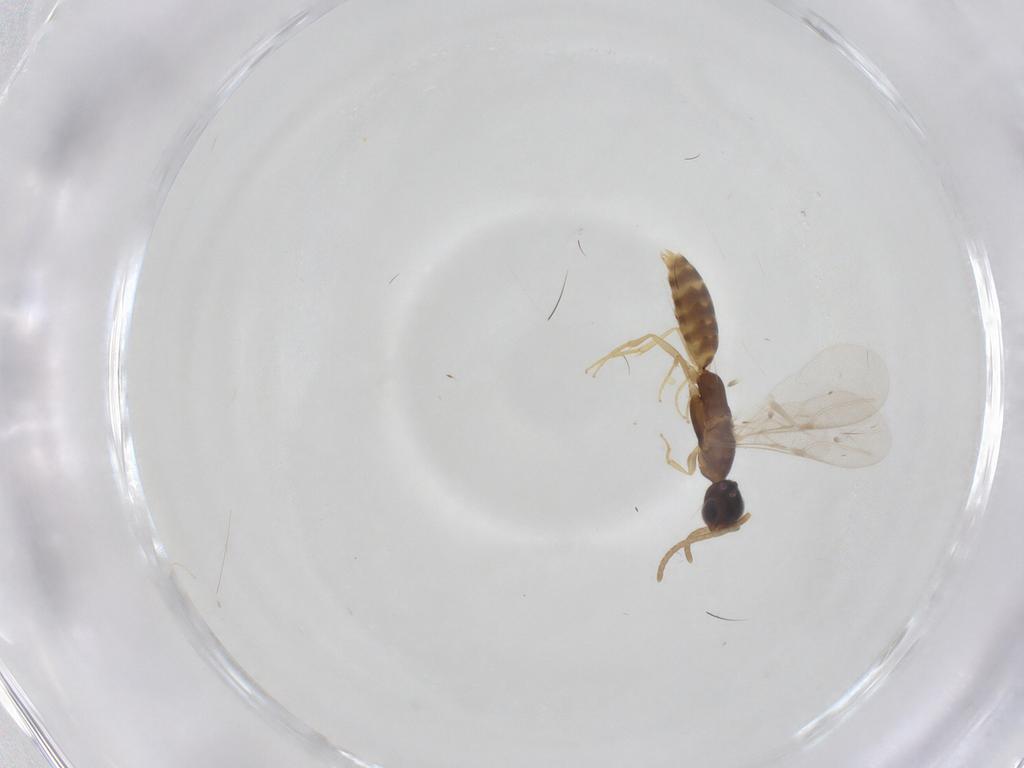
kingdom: Animalia
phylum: Arthropoda
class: Insecta
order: Hymenoptera
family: Bethylidae
